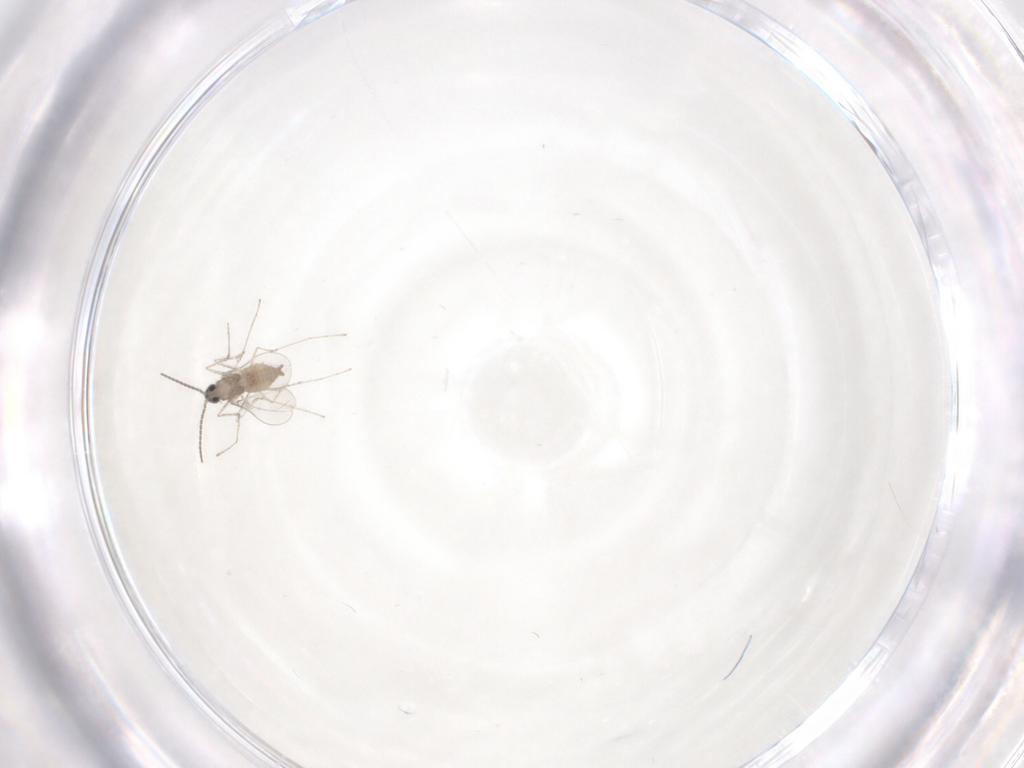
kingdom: Animalia
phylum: Arthropoda
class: Insecta
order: Diptera
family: Cecidomyiidae
